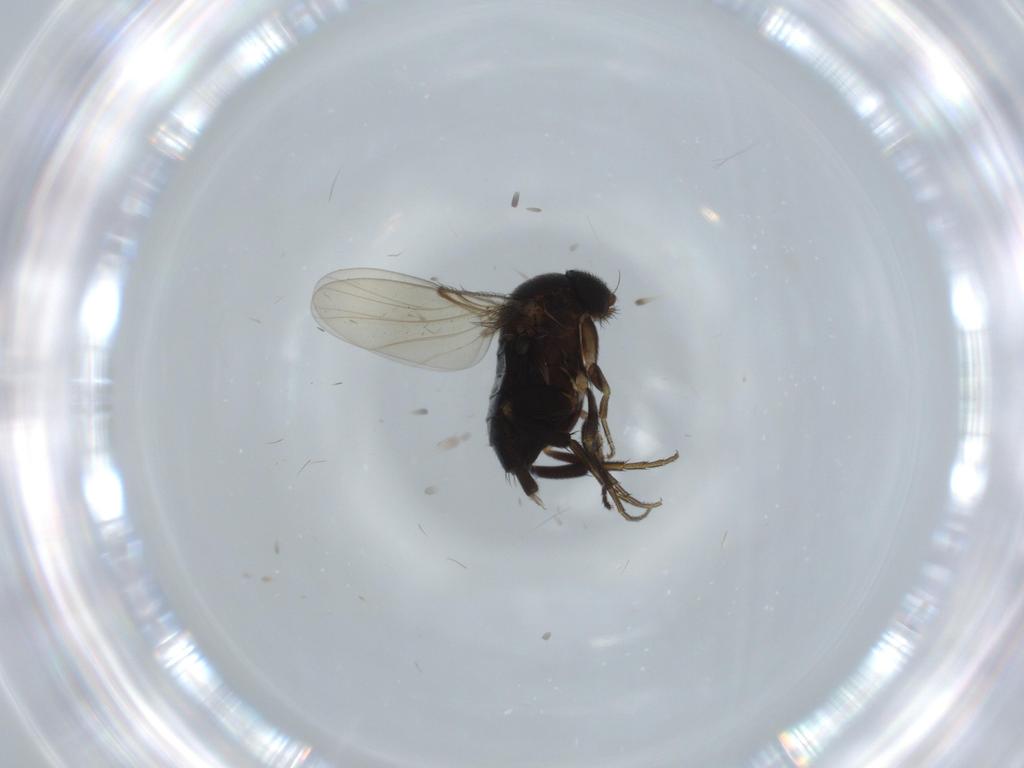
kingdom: Animalia
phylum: Arthropoda
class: Insecta
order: Diptera
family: Phoridae
